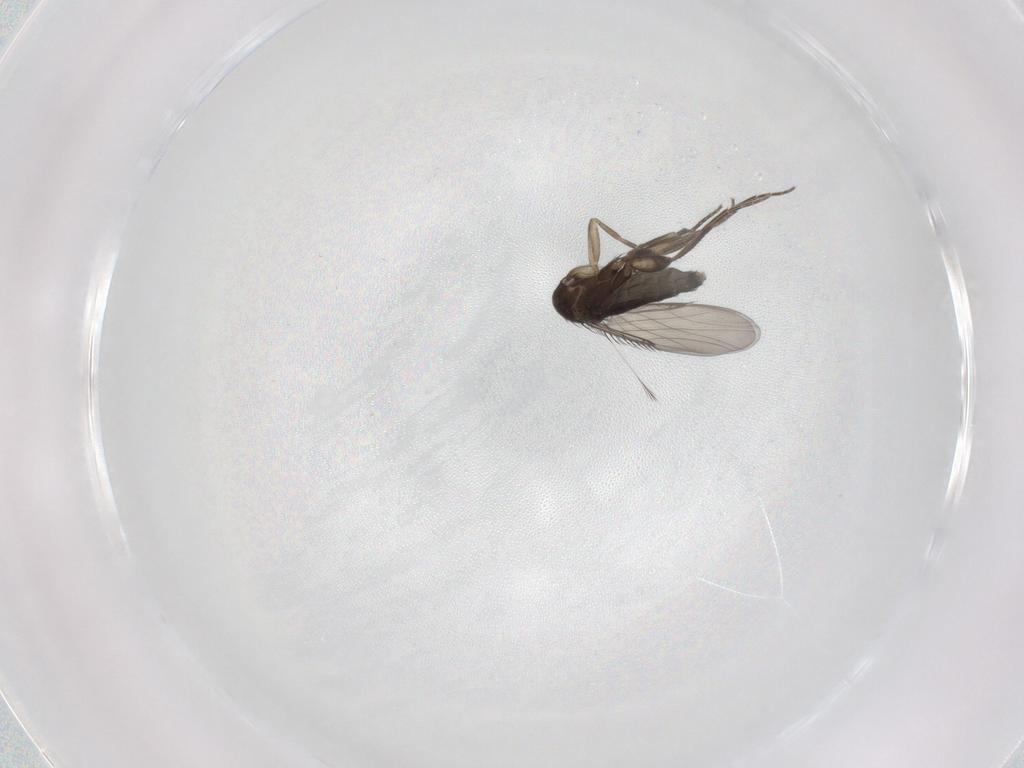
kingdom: Animalia
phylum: Arthropoda
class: Insecta
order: Diptera
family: Phoridae
